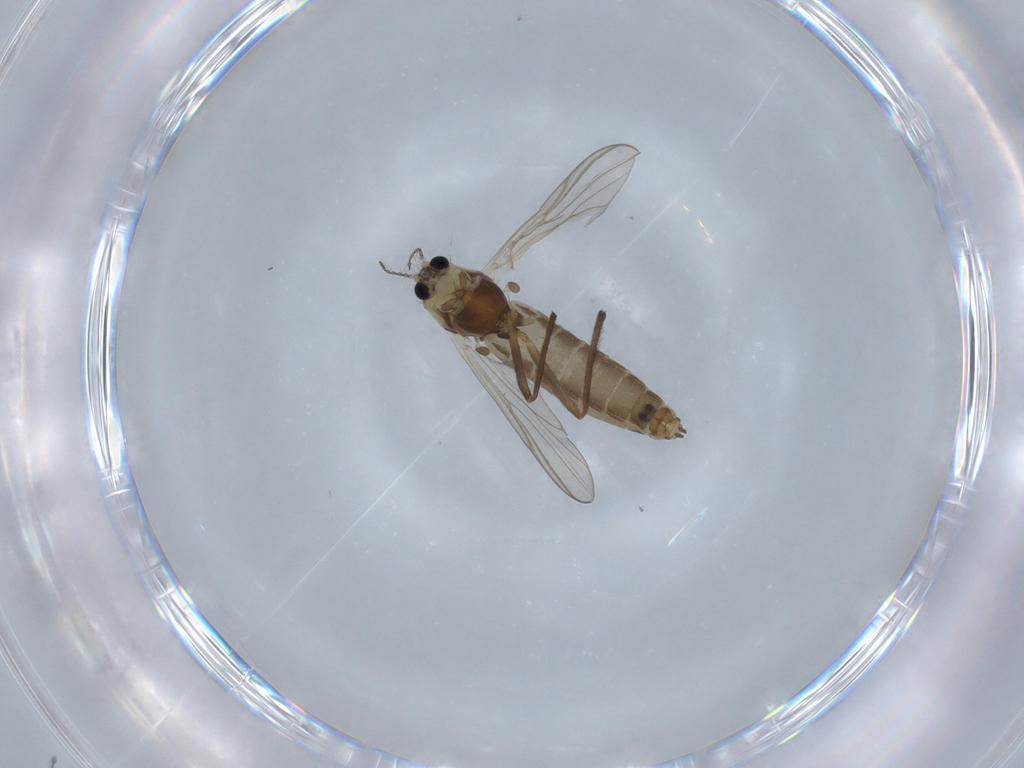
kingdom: Animalia
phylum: Arthropoda
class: Insecta
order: Diptera
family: Chironomidae
